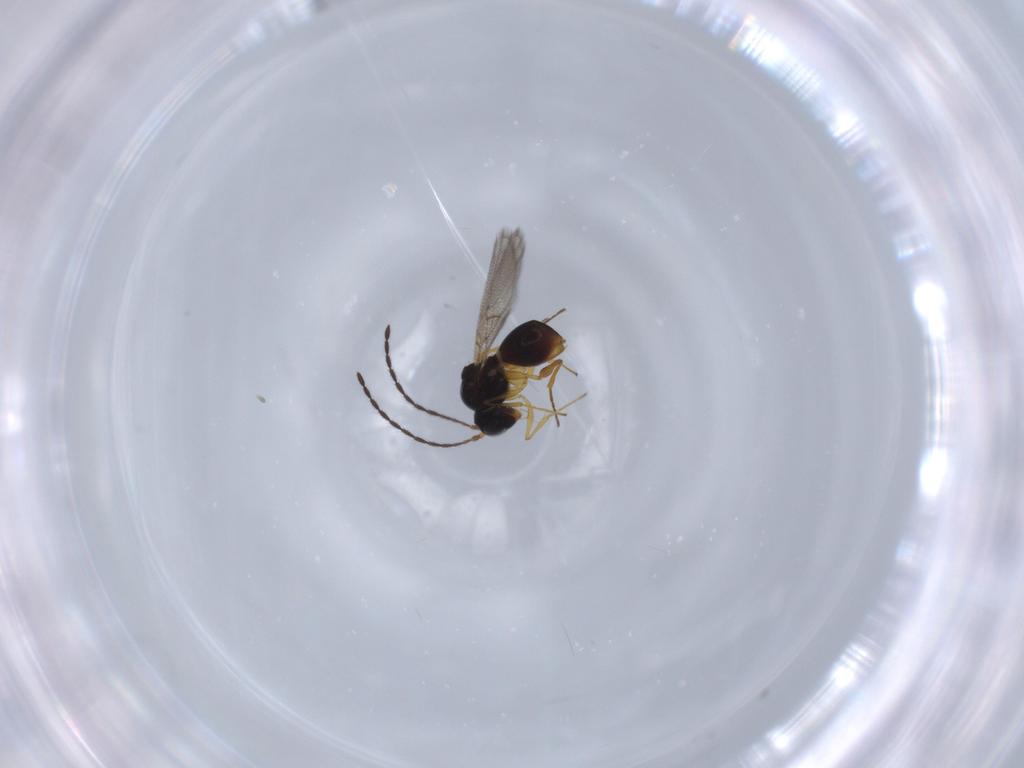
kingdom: Animalia
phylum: Arthropoda
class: Insecta
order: Hymenoptera
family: Figitidae
